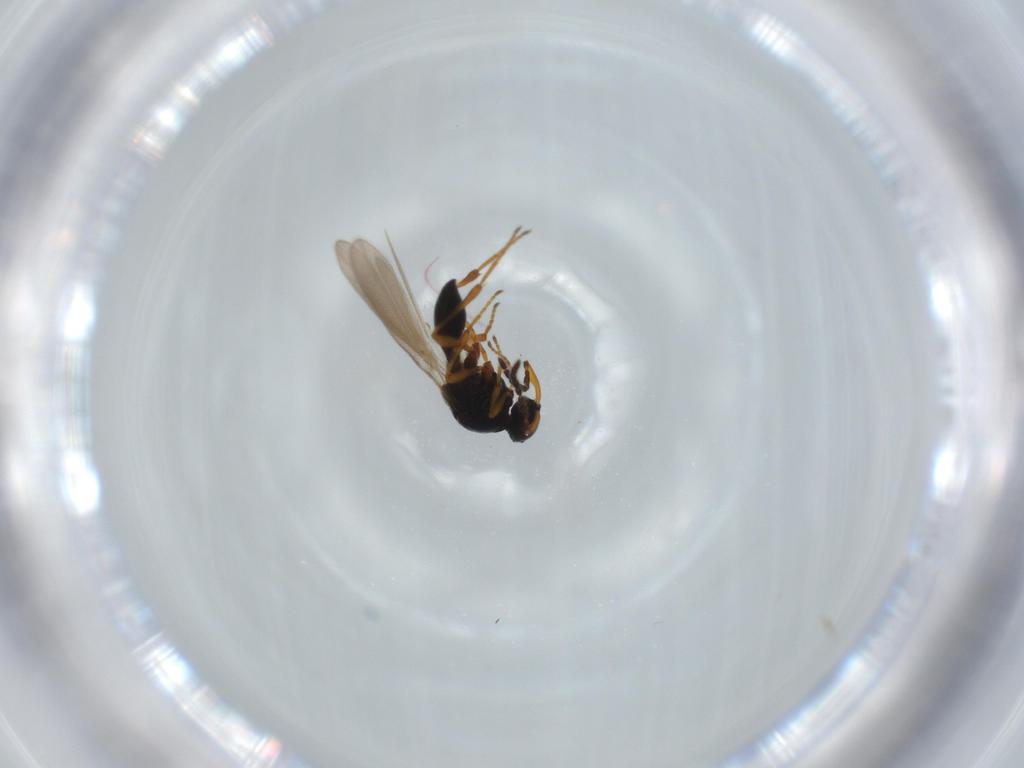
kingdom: Animalia
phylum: Arthropoda
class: Insecta
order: Hymenoptera
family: Platygastridae
